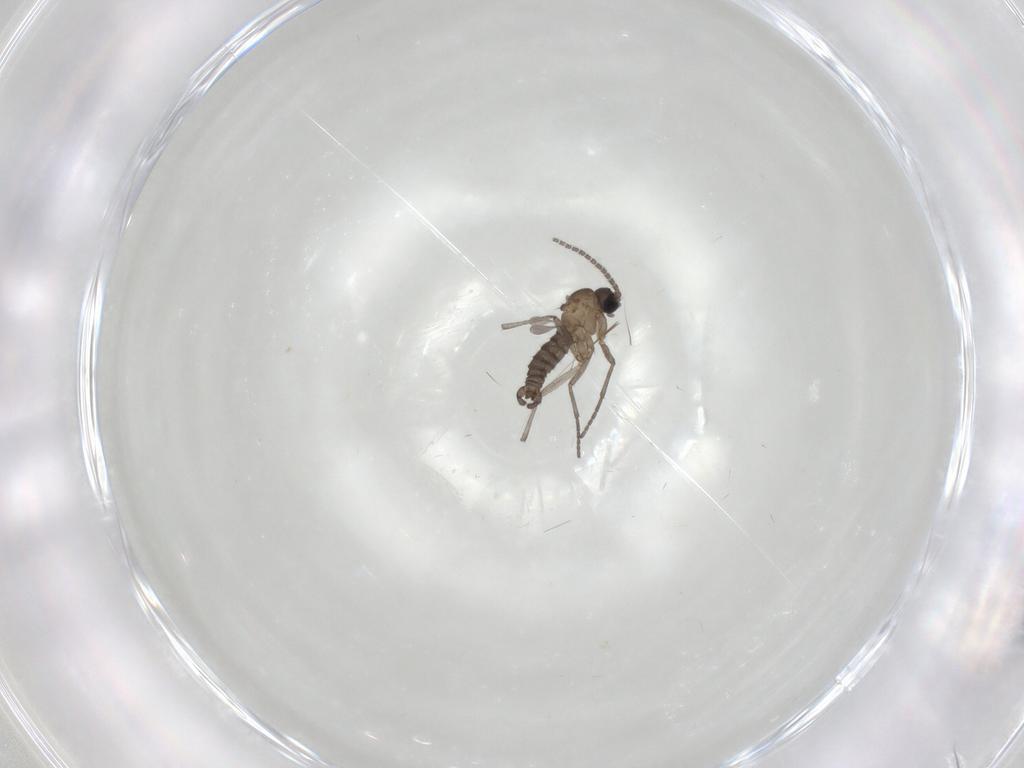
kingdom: Animalia
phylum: Arthropoda
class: Insecta
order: Diptera
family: Sciaridae
